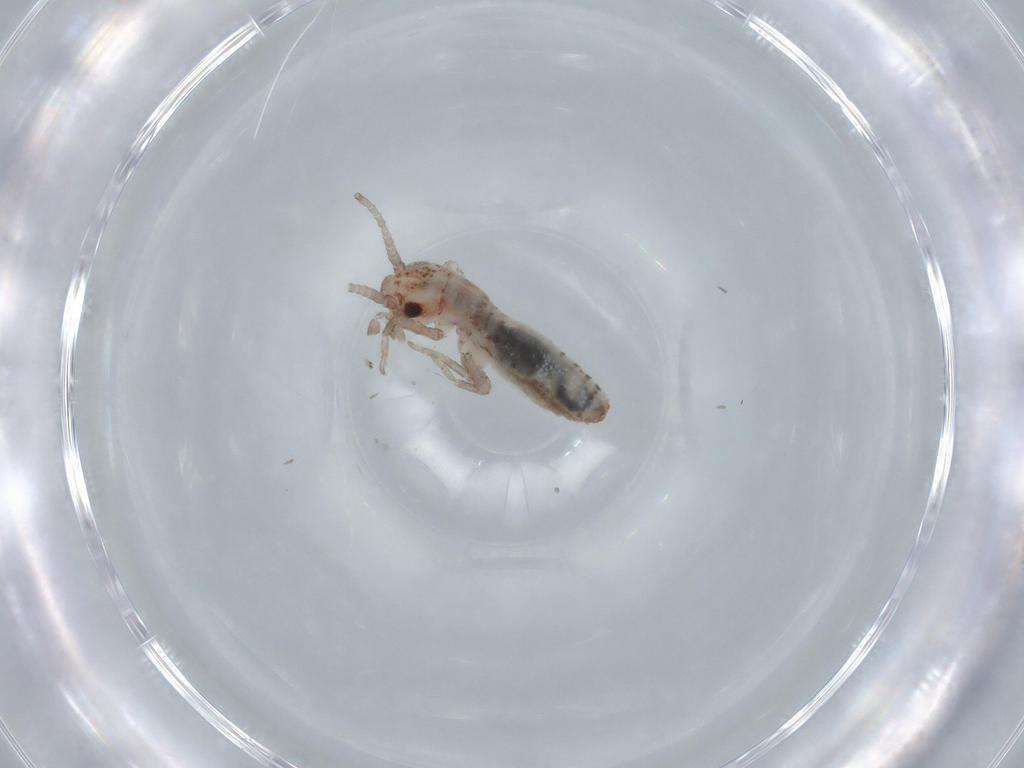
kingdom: Animalia
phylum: Arthropoda
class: Insecta
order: Orthoptera
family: Mogoplistidae
